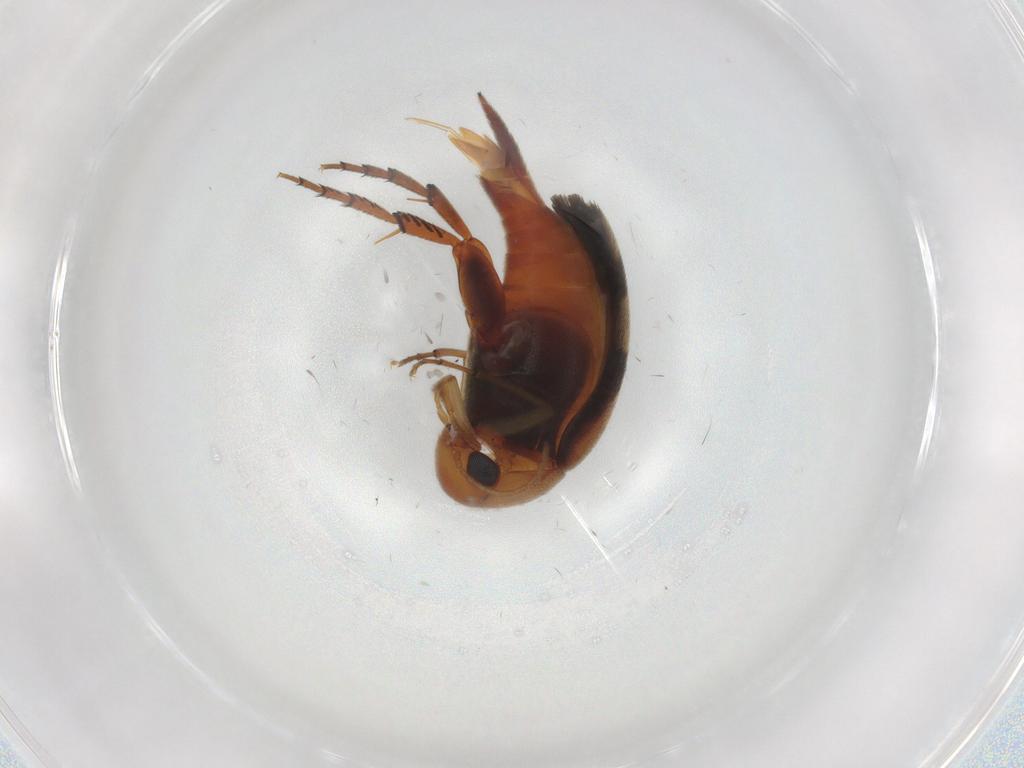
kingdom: Animalia
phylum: Arthropoda
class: Insecta
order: Coleoptera
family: Mordellidae
